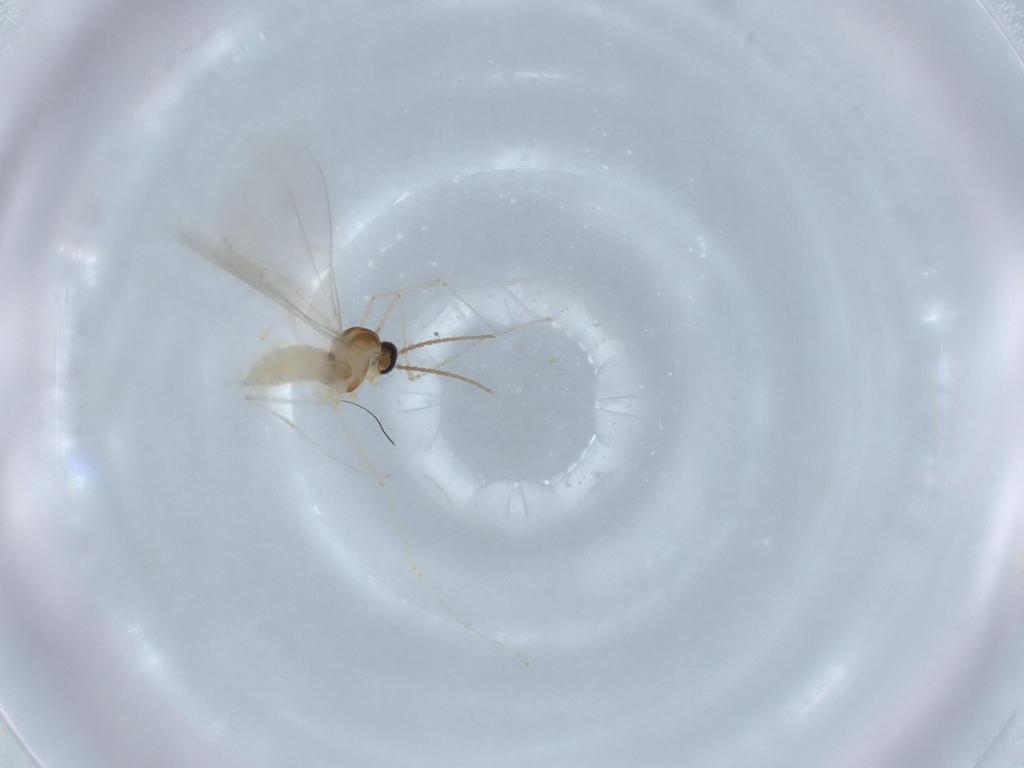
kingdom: Animalia
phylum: Arthropoda
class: Insecta
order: Diptera
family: Cecidomyiidae
